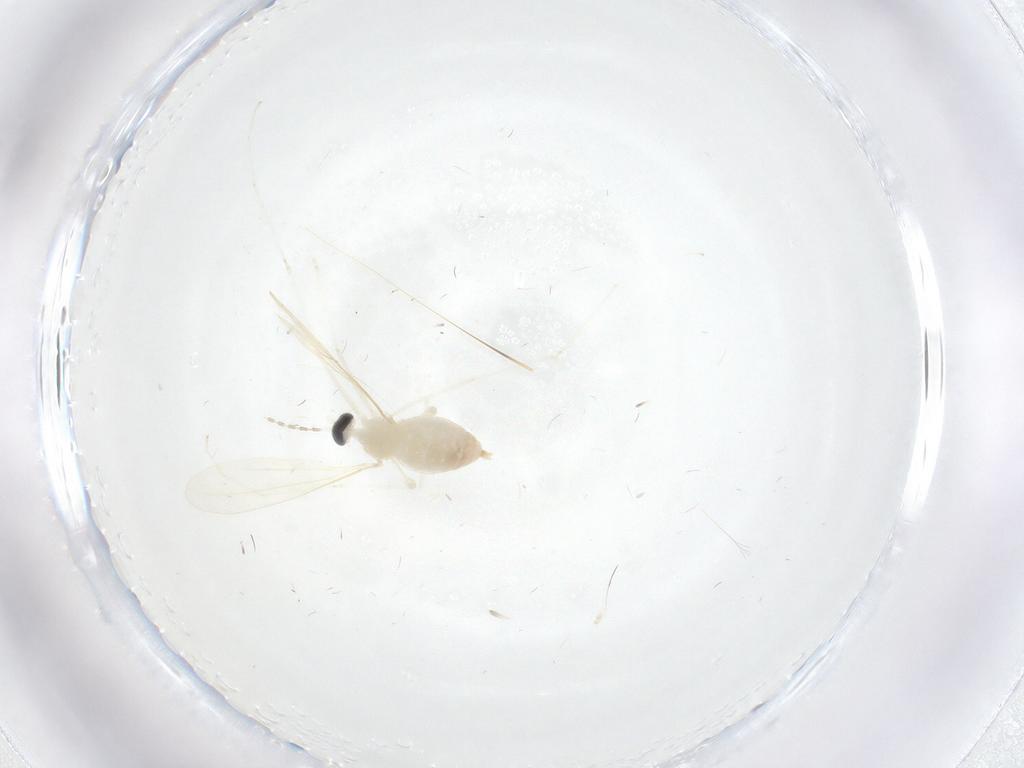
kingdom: Animalia
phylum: Arthropoda
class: Insecta
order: Diptera
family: Cecidomyiidae
